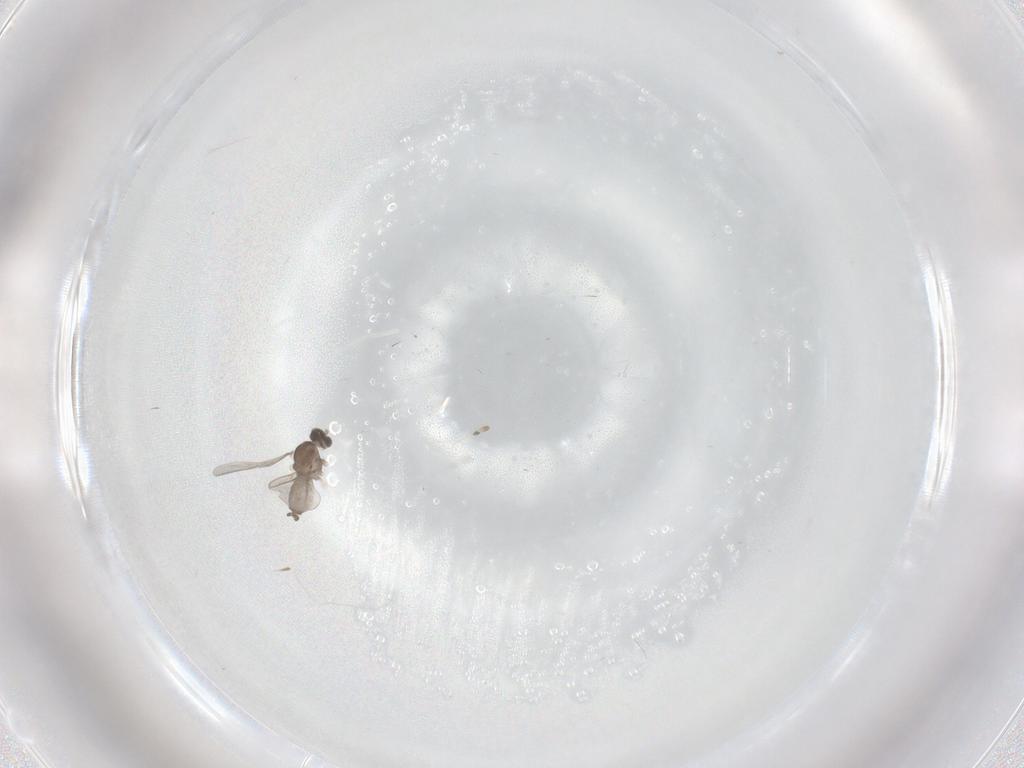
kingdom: Animalia
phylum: Arthropoda
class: Insecta
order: Diptera
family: Cecidomyiidae
